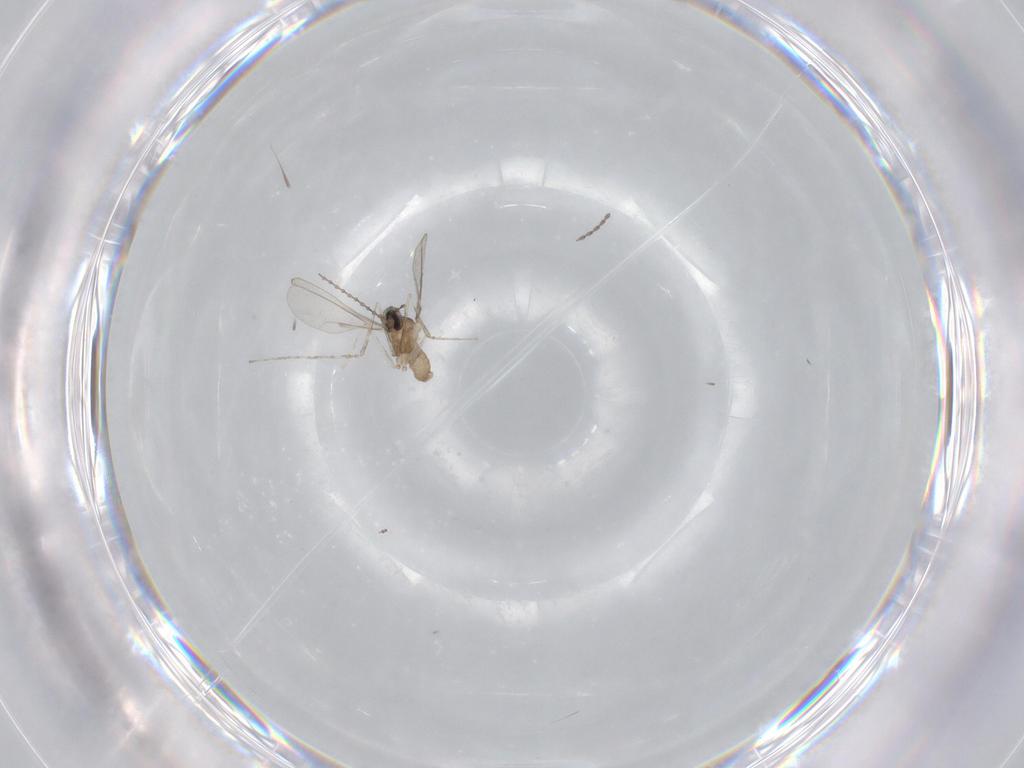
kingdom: Animalia
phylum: Arthropoda
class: Insecta
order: Diptera
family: Cecidomyiidae
